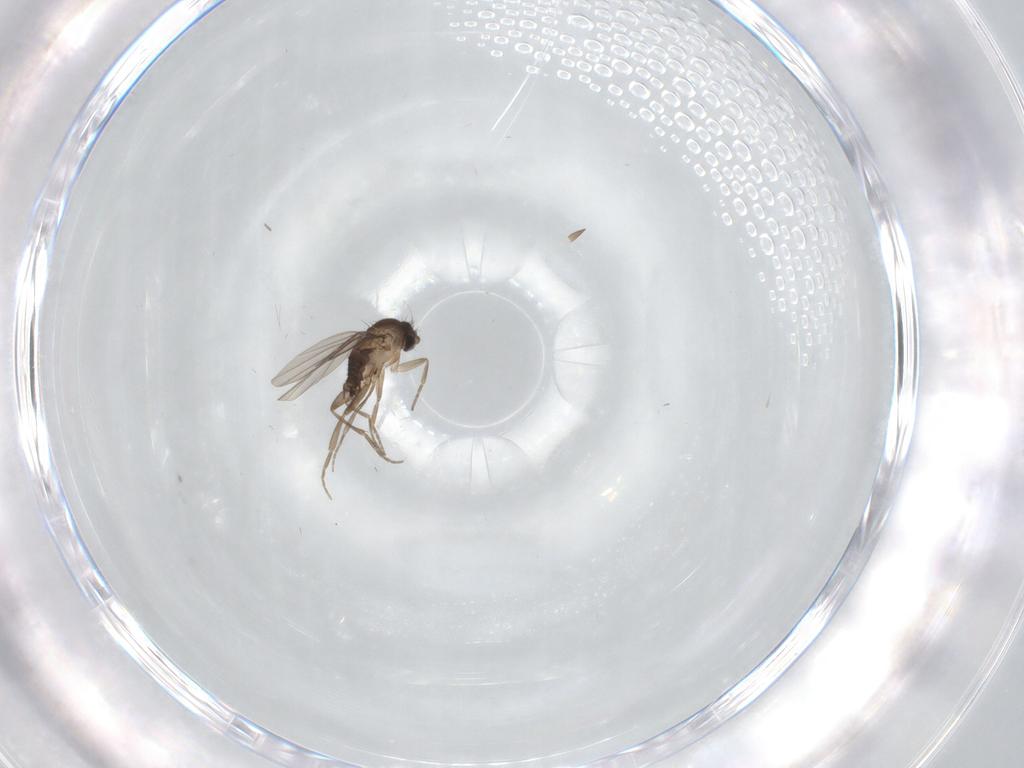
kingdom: Animalia
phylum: Arthropoda
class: Insecta
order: Diptera
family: Phoridae
